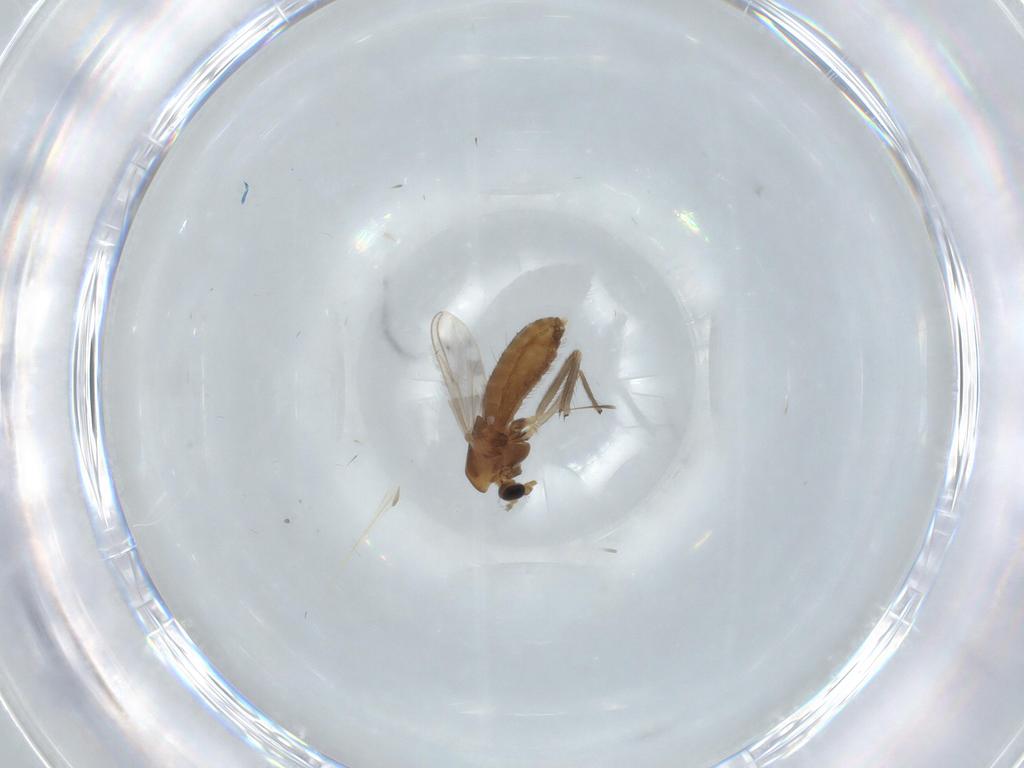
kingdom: Animalia
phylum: Arthropoda
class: Insecta
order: Diptera
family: Chironomidae
